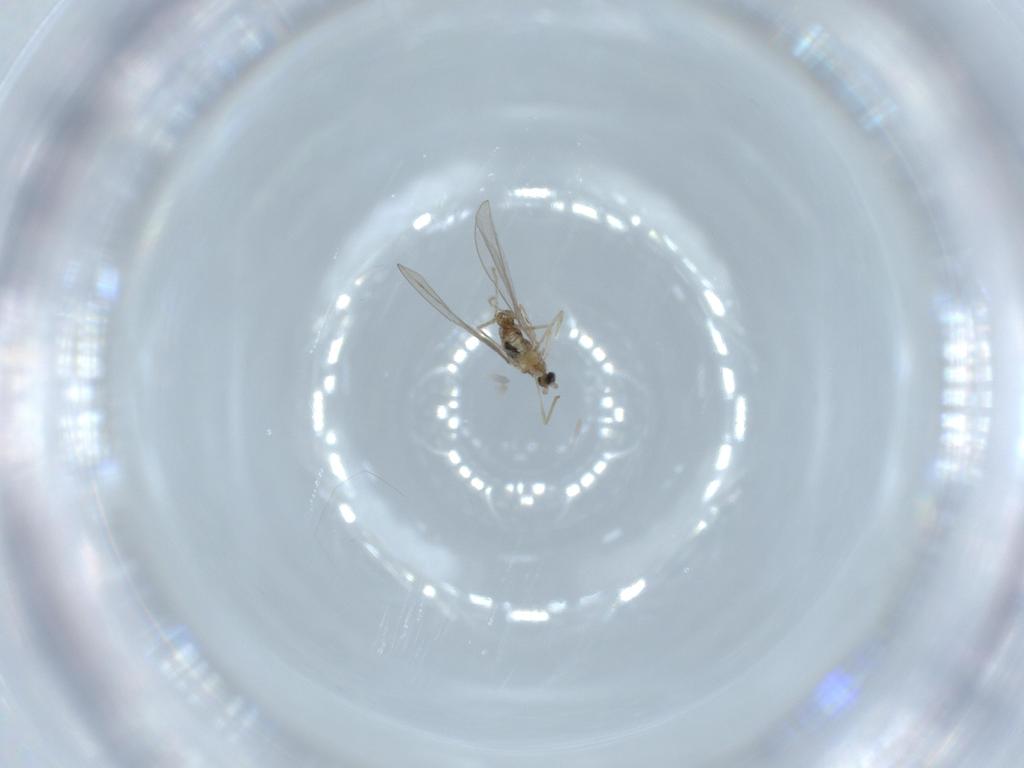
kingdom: Animalia
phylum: Arthropoda
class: Insecta
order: Diptera
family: Cecidomyiidae
